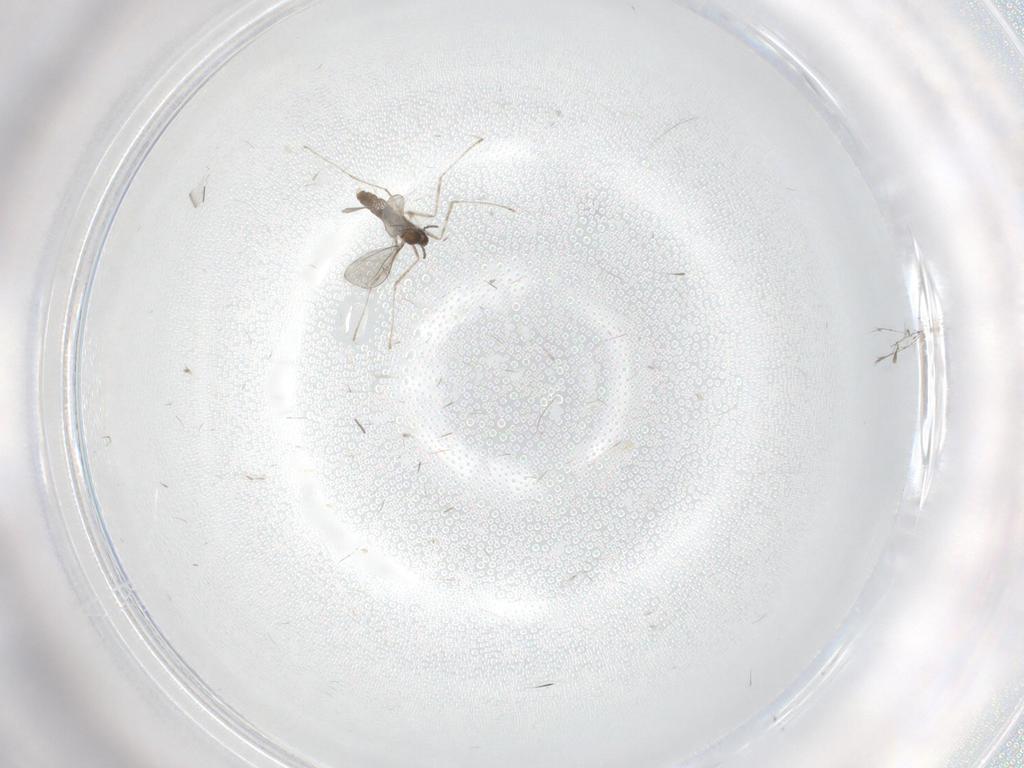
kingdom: Animalia
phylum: Arthropoda
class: Insecta
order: Diptera
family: Cecidomyiidae
